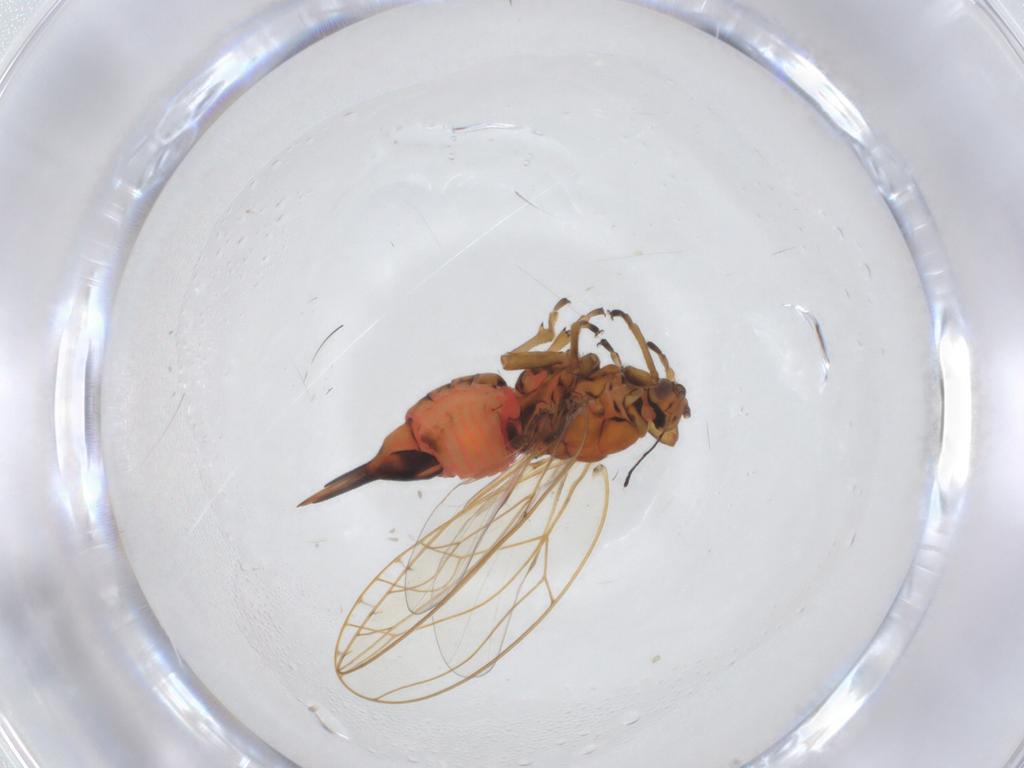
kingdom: Animalia
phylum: Arthropoda
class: Insecta
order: Hemiptera
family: Triozidae
